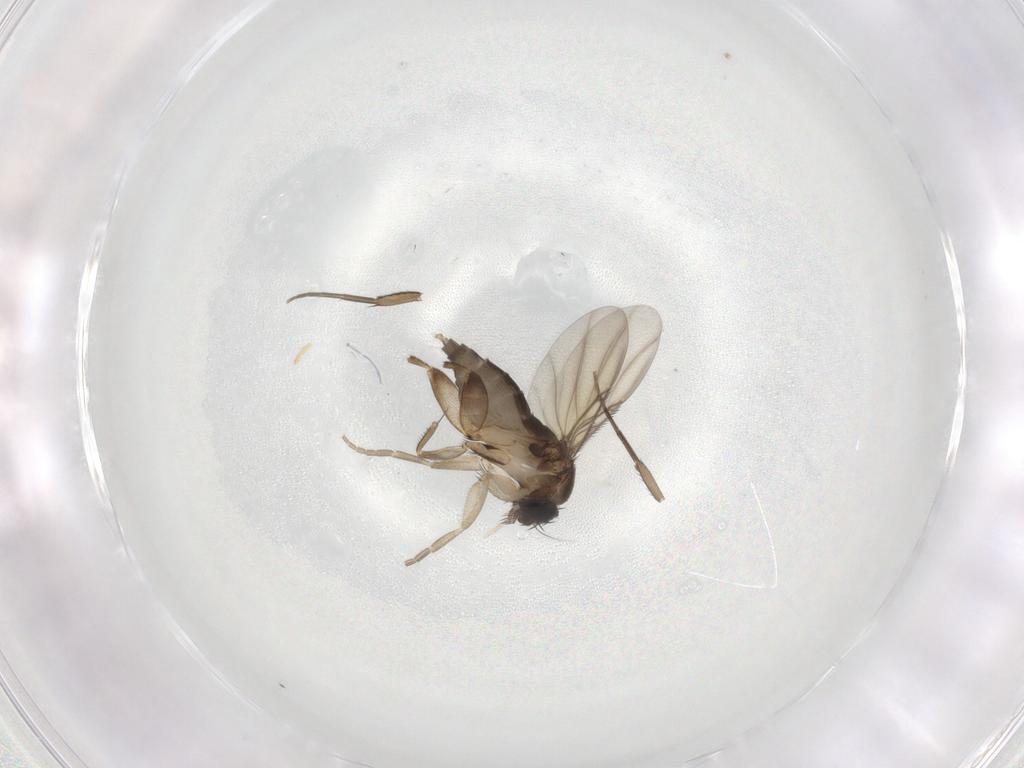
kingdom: Animalia
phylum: Arthropoda
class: Insecta
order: Diptera
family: Phoridae
